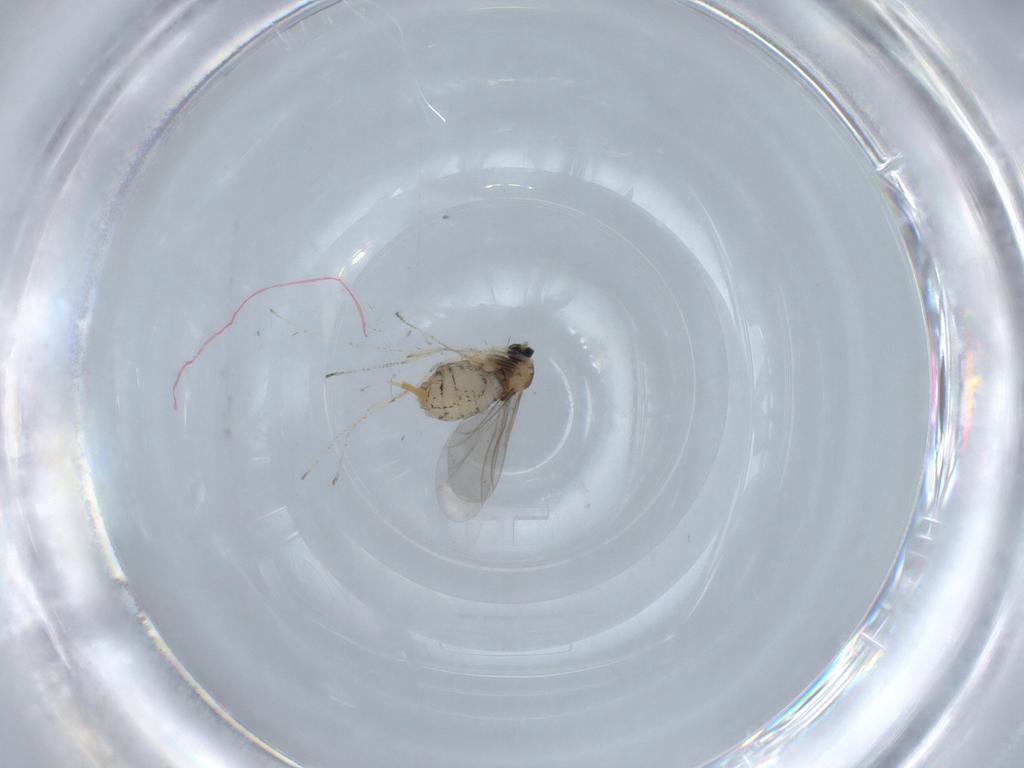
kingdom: Animalia
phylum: Arthropoda
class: Insecta
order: Diptera
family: Cecidomyiidae
